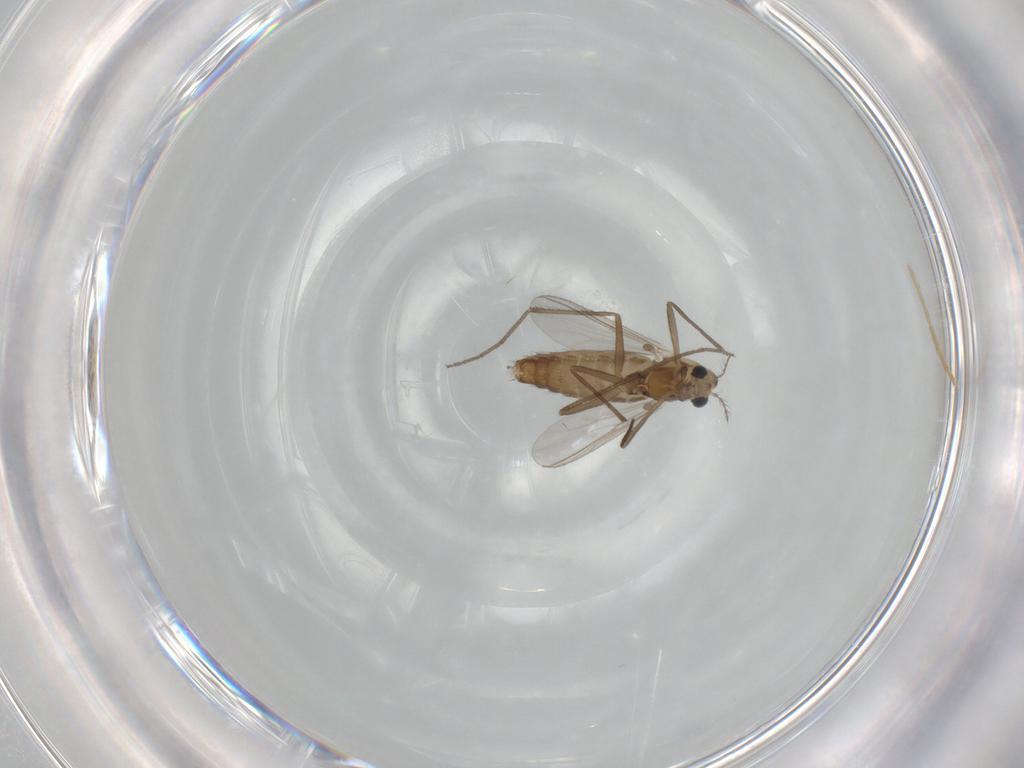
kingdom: Animalia
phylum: Arthropoda
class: Insecta
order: Diptera
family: Chironomidae
